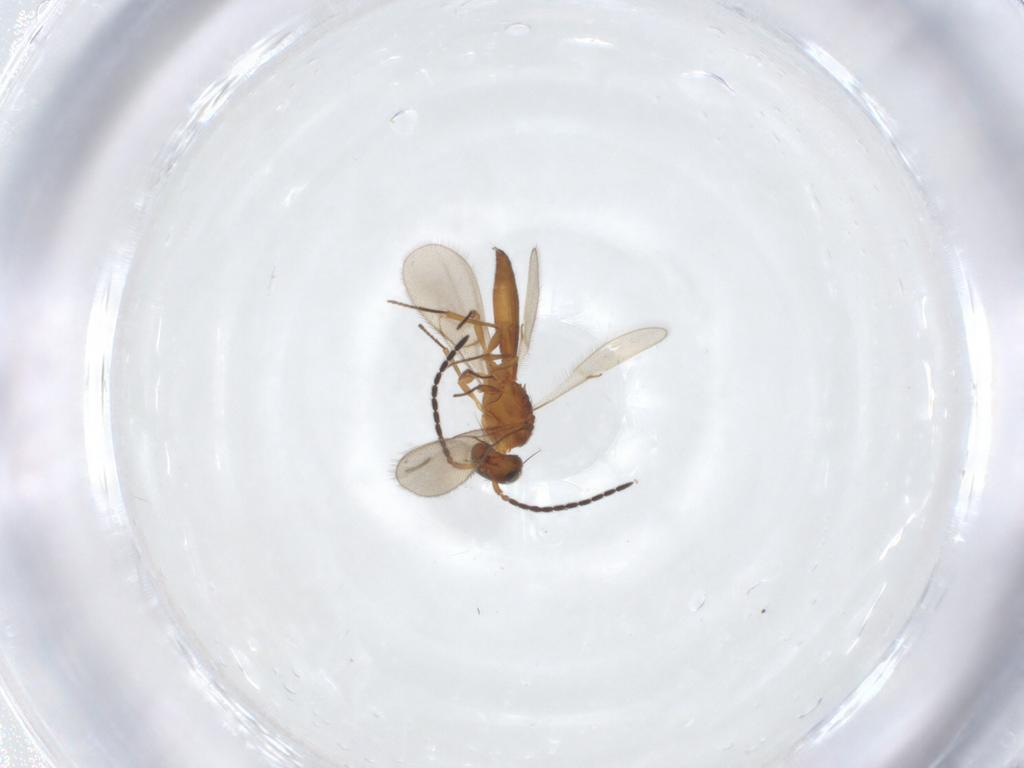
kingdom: Animalia
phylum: Arthropoda
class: Insecta
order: Hymenoptera
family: Scelionidae
